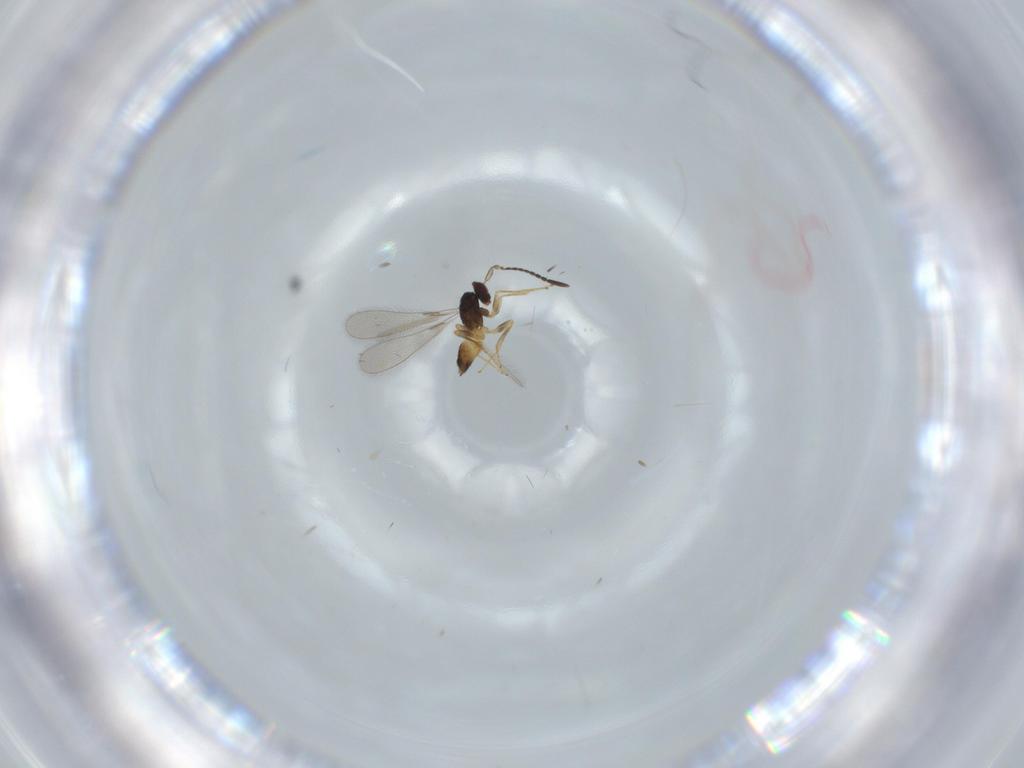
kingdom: Animalia
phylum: Arthropoda
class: Insecta
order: Hymenoptera
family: Mymaridae
